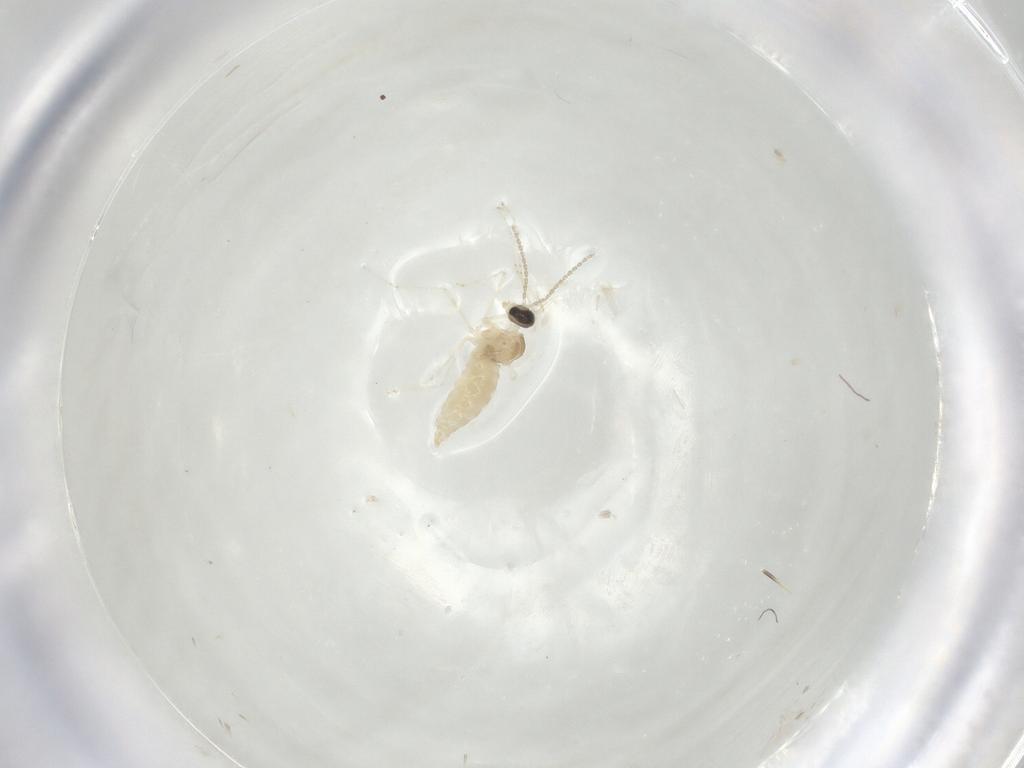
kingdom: Animalia
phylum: Arthropoda
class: Insecta
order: Diptera
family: Cecidomyiidae
